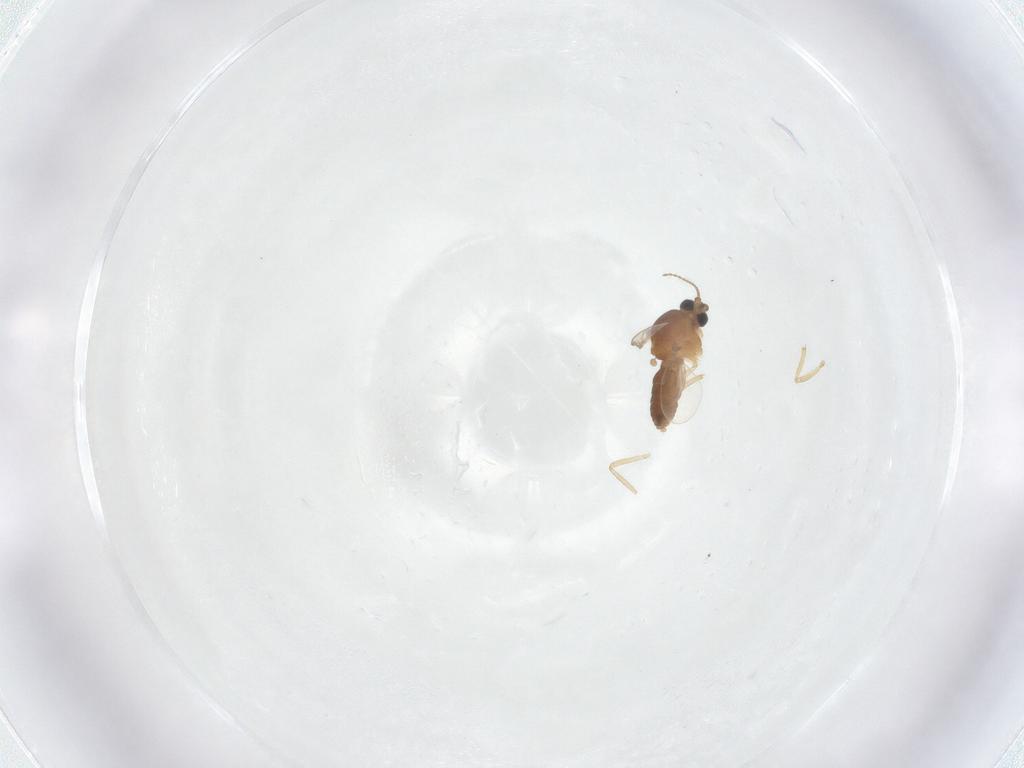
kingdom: Animalia
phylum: Arthropoda
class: Insecta
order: Diptera
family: Ceratopogonidae
